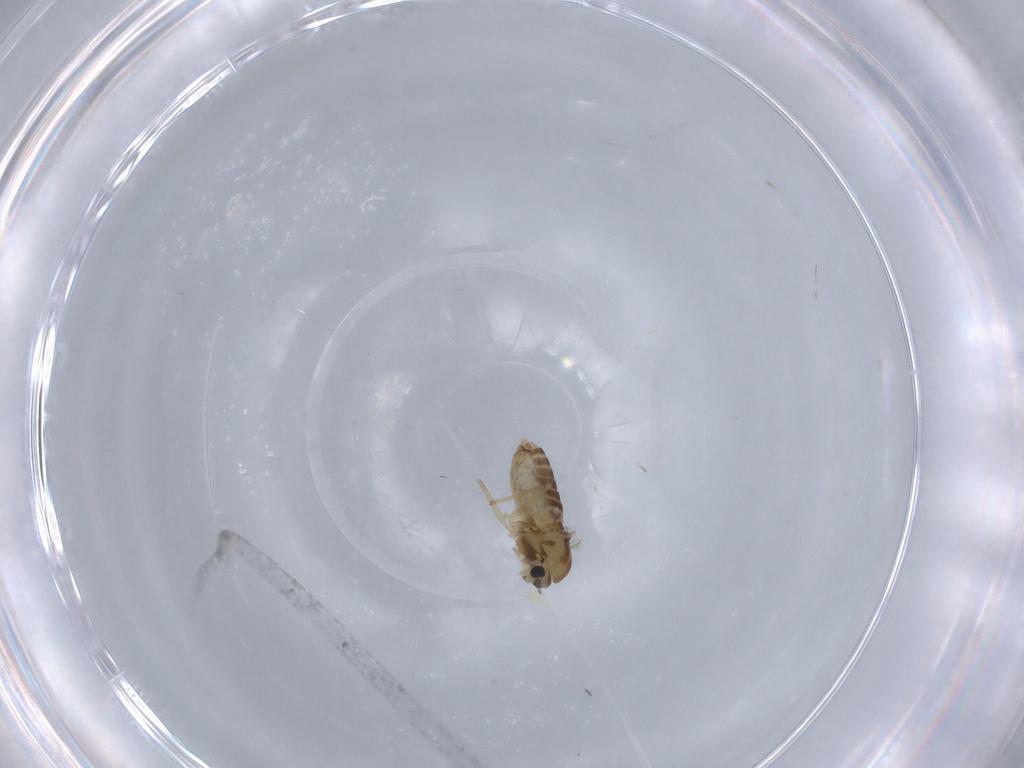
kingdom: Animalia
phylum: Arthropoda
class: Insecta
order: Diptera
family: Chironomidae
